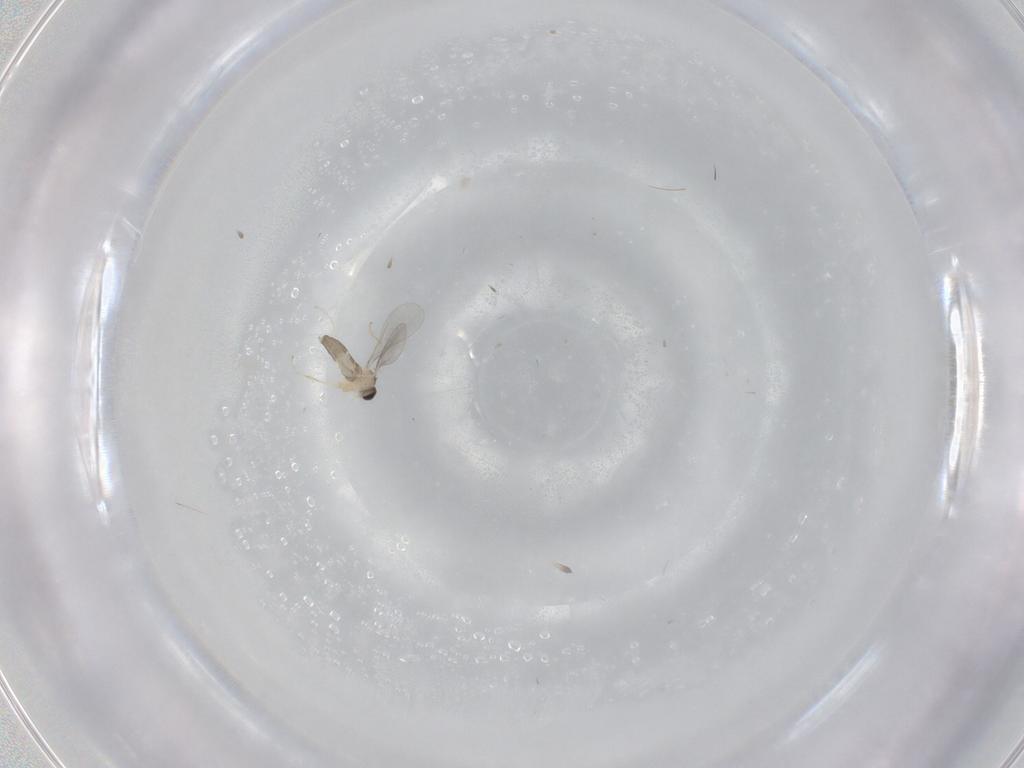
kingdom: Animalia
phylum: Arthropoda
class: Insecta
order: Diptera
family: Cecidomyiidae
